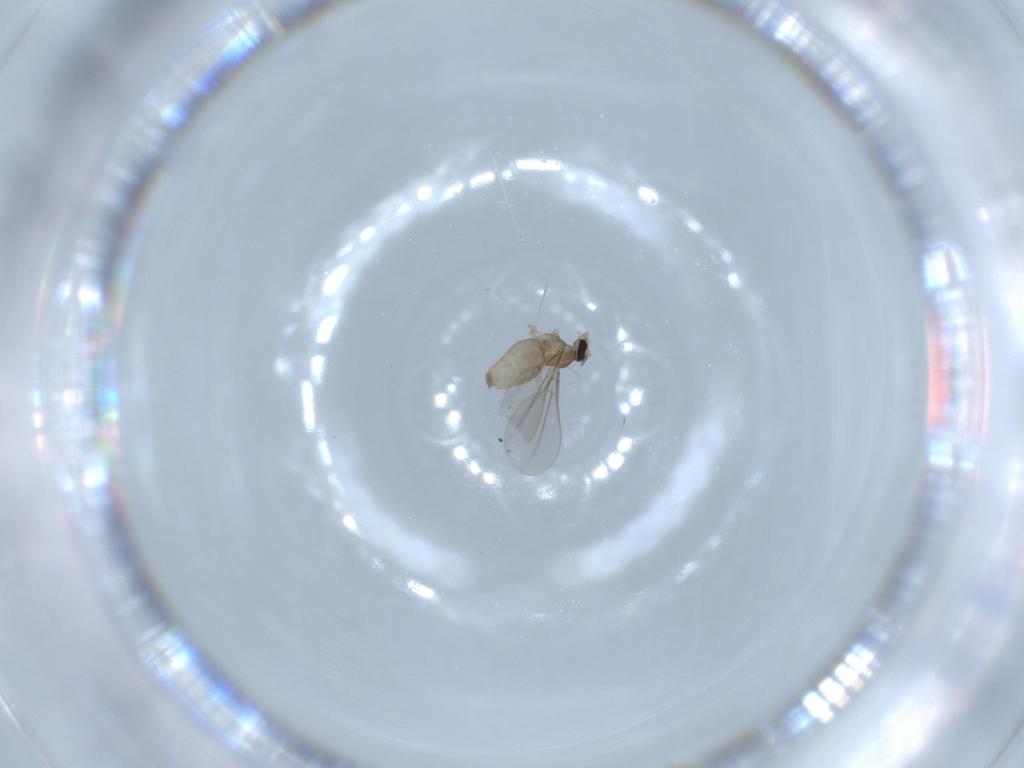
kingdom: Animalia
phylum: Arthropoda
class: Insecta
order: Diptera
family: Cecidomyiidae
